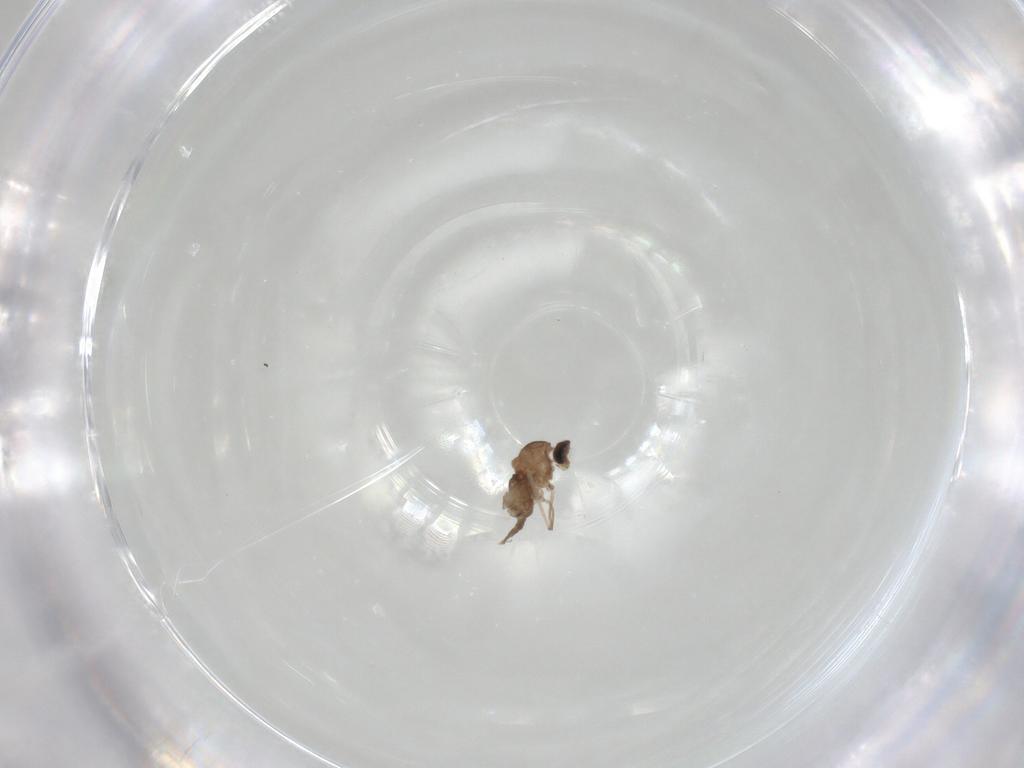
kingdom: Animalia
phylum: Arthropoda
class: Insecta
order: Diptera
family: Cecidomyiidae
